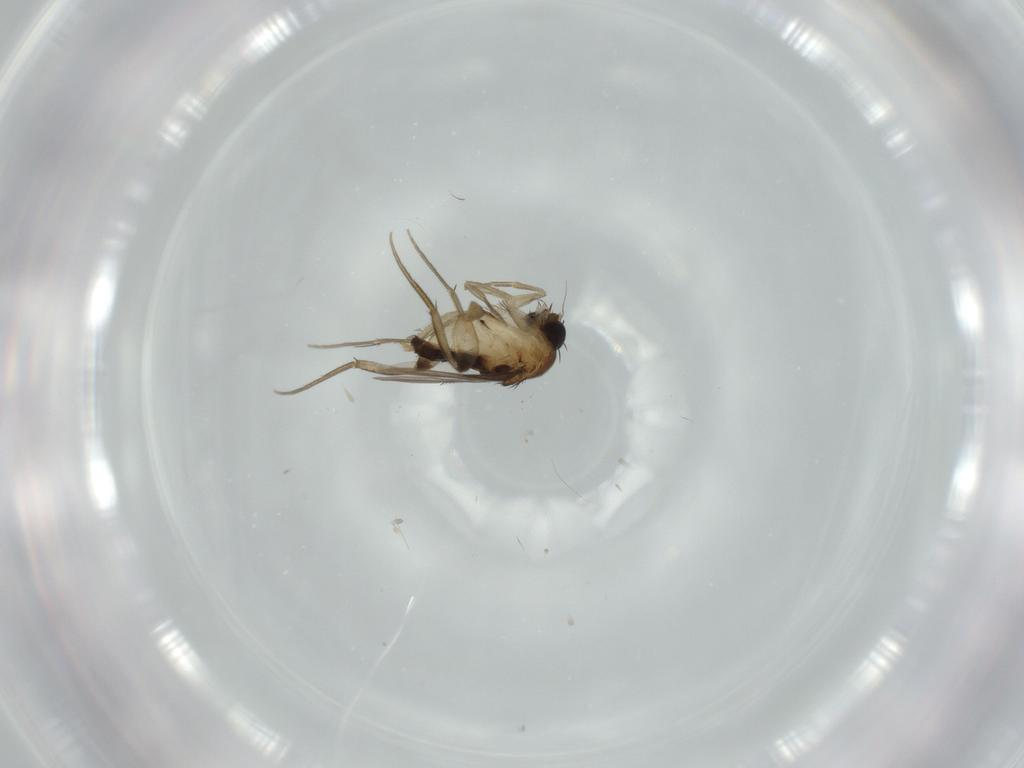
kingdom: Animalia
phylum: Arthropoda
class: Insecta
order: Diptera
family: Phoridae
